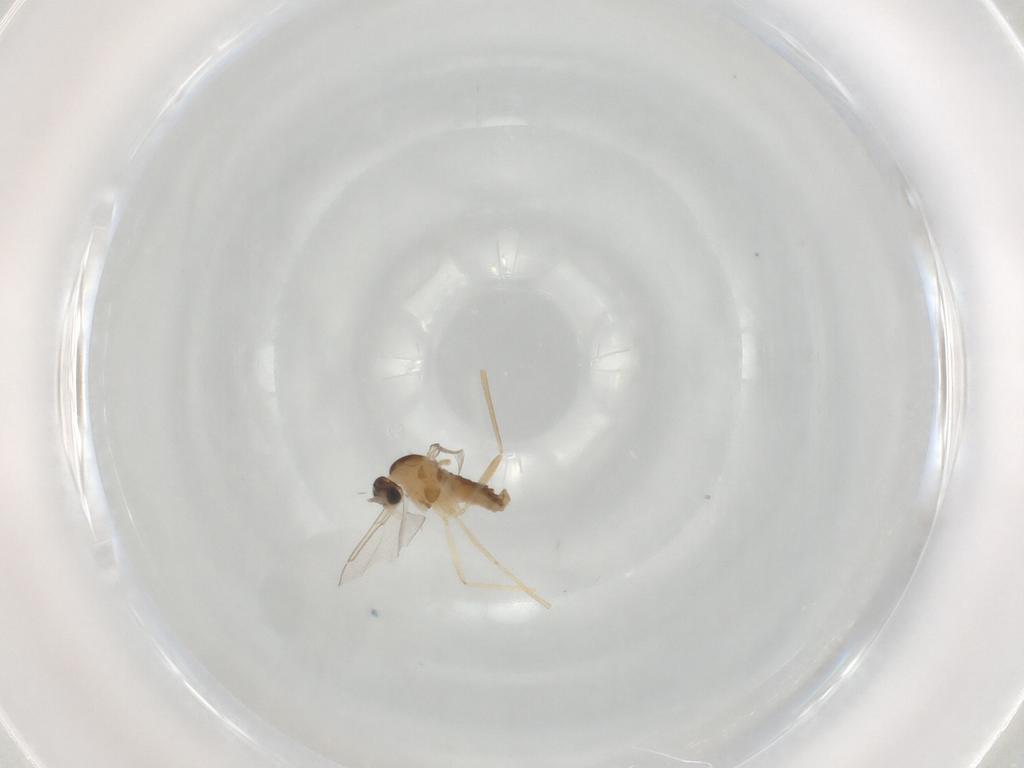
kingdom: Animalia
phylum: Arthropoda
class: Insecta
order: Diptera
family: Cecidomyiidae
